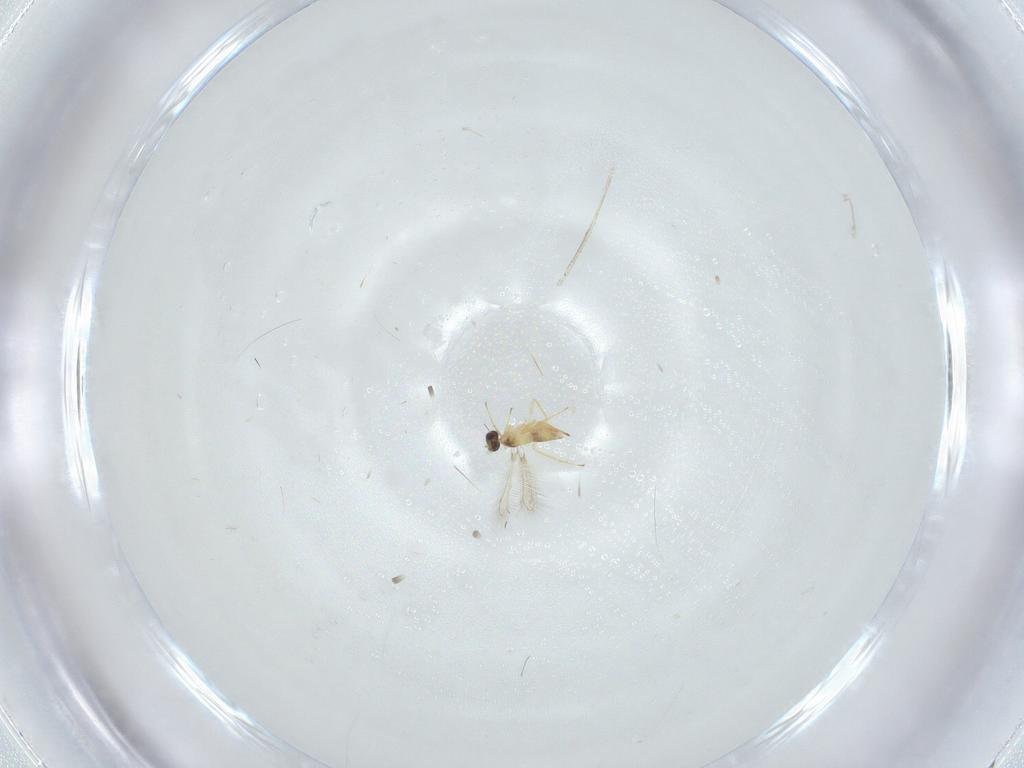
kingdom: Animalia
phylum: Arthropoda
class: Insecta
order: Hymenoptera
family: Mymaridae
